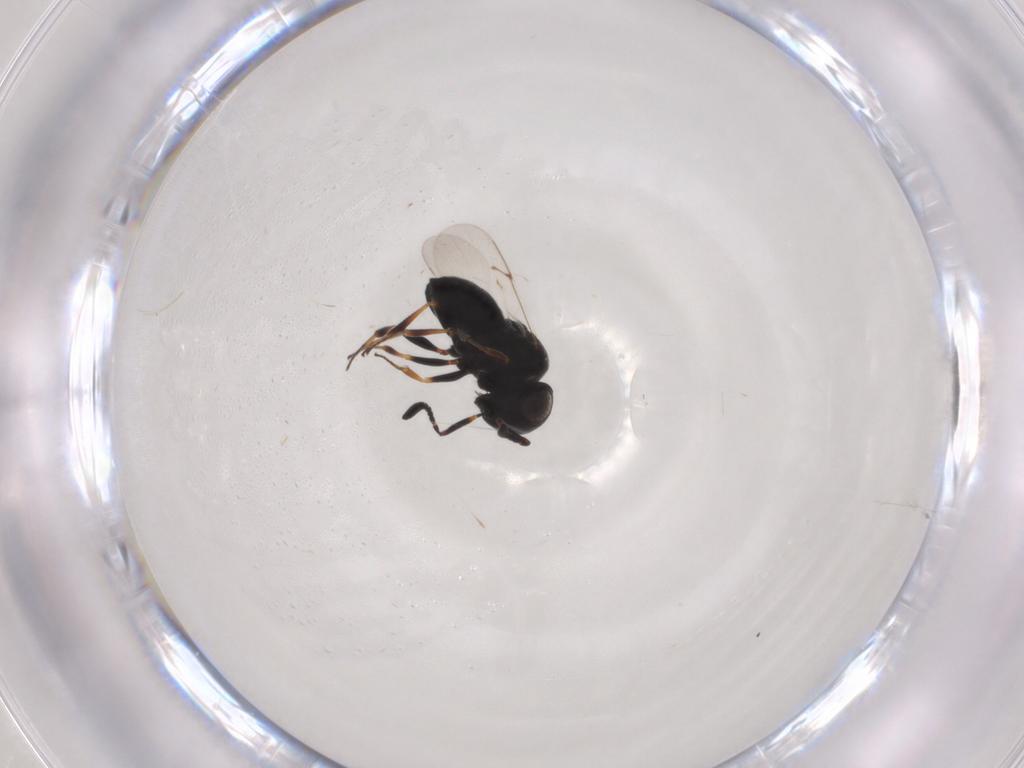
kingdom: Animalia
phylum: Arthropoda
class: Insecta
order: Hymenoptera
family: Scelionidae
